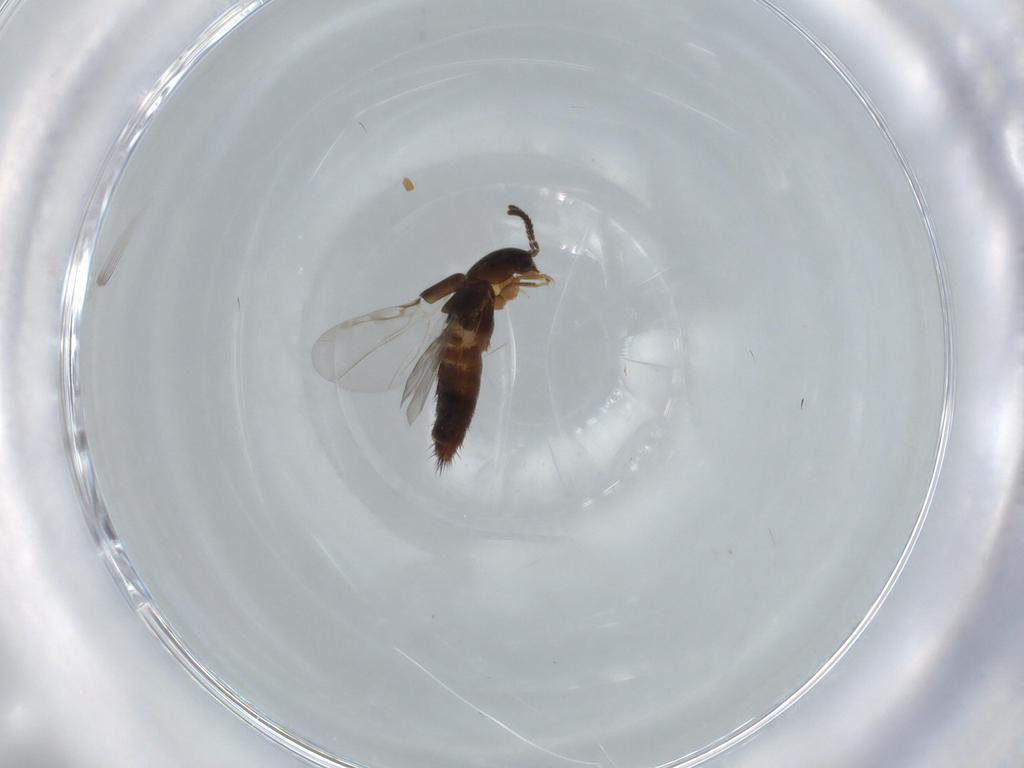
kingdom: Animalia
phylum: Arthropoda
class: Insecta
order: Coleoptera
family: Staphylinidae
